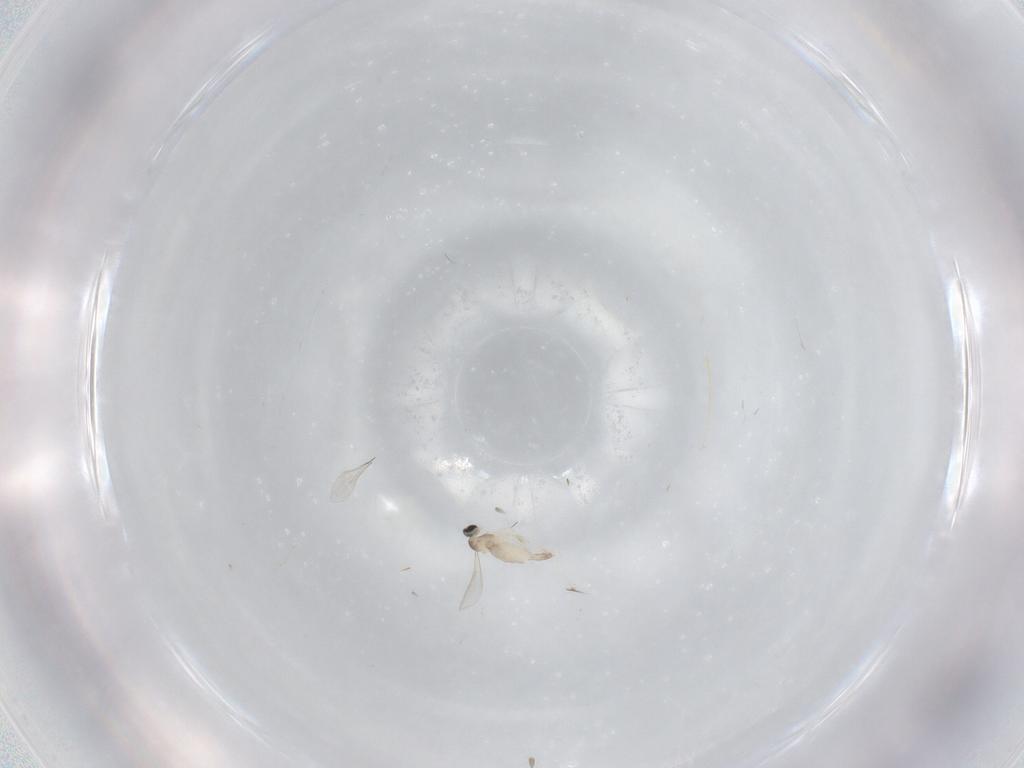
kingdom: Animalia
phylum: Arthropoda
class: Insecta
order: Diptera
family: Cecidomyiidae
